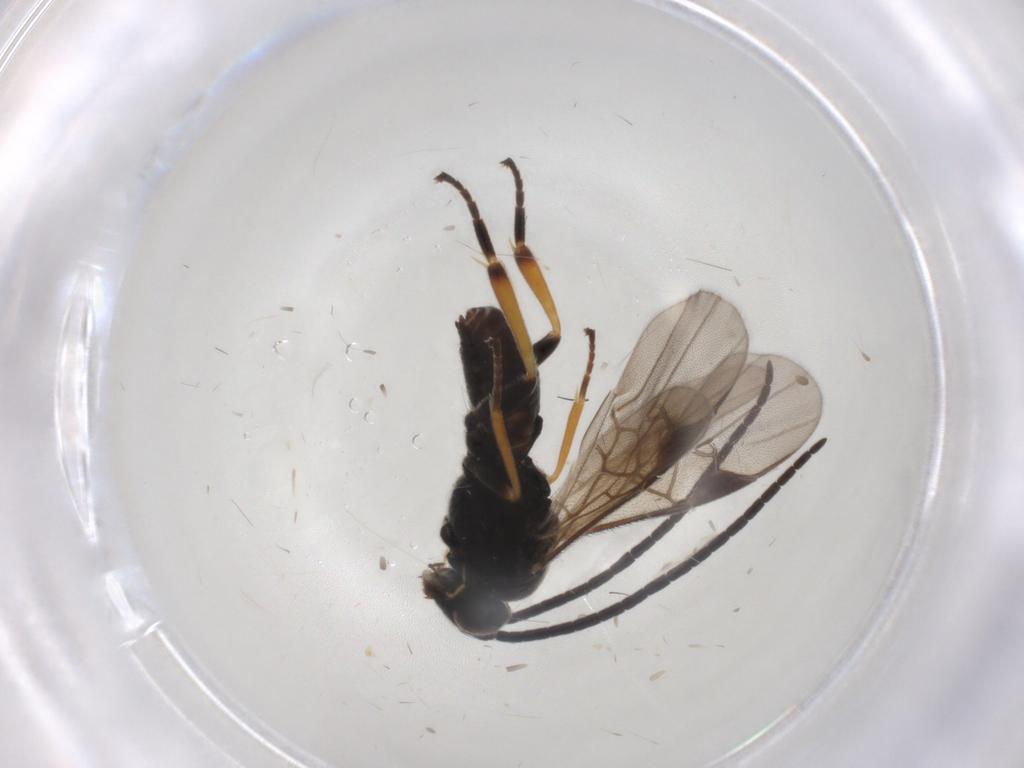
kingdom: Animalia
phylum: Arthropoda
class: Insecta
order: Hymenoptera
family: Braconidae
